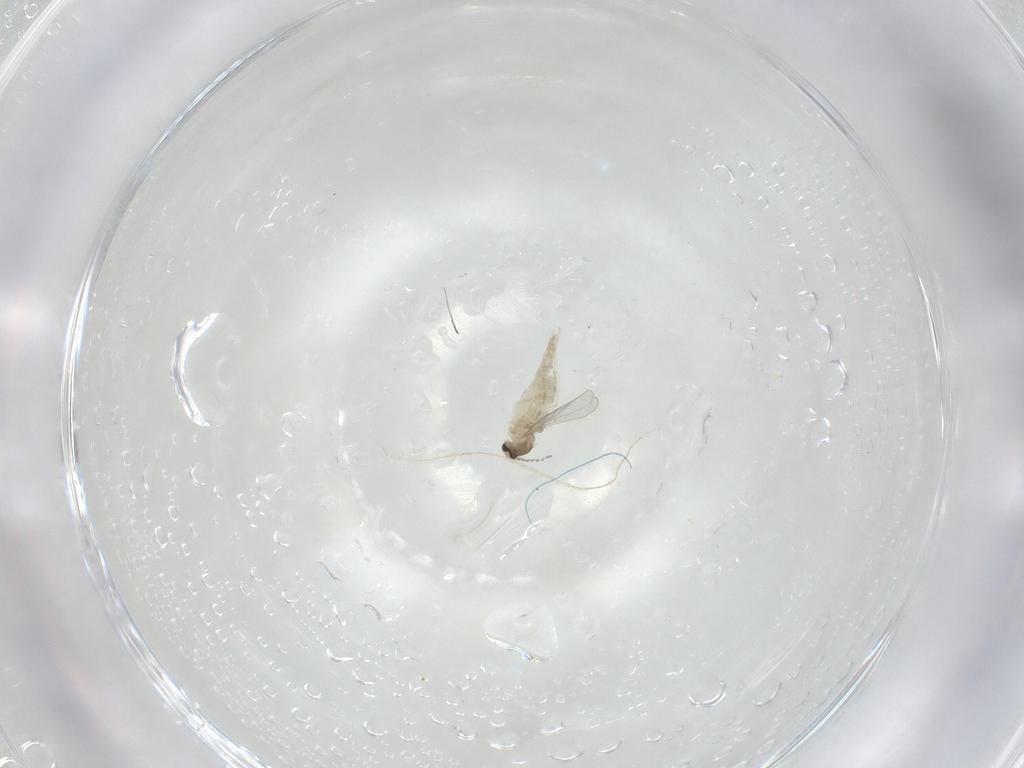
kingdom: Animalia
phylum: Arthropoda
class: Insecta
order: Diptera
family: Cecidomyiidae
